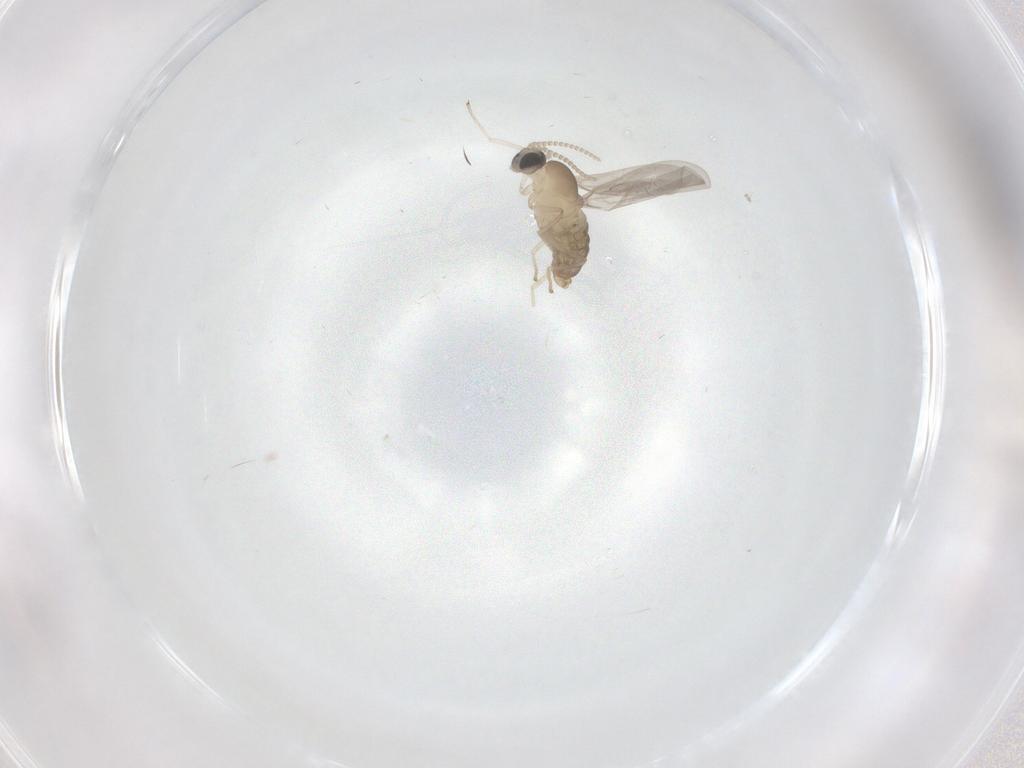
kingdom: Animalia
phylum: Arthropoda
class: Insecta
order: Diptera
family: Cecidomyiidae
